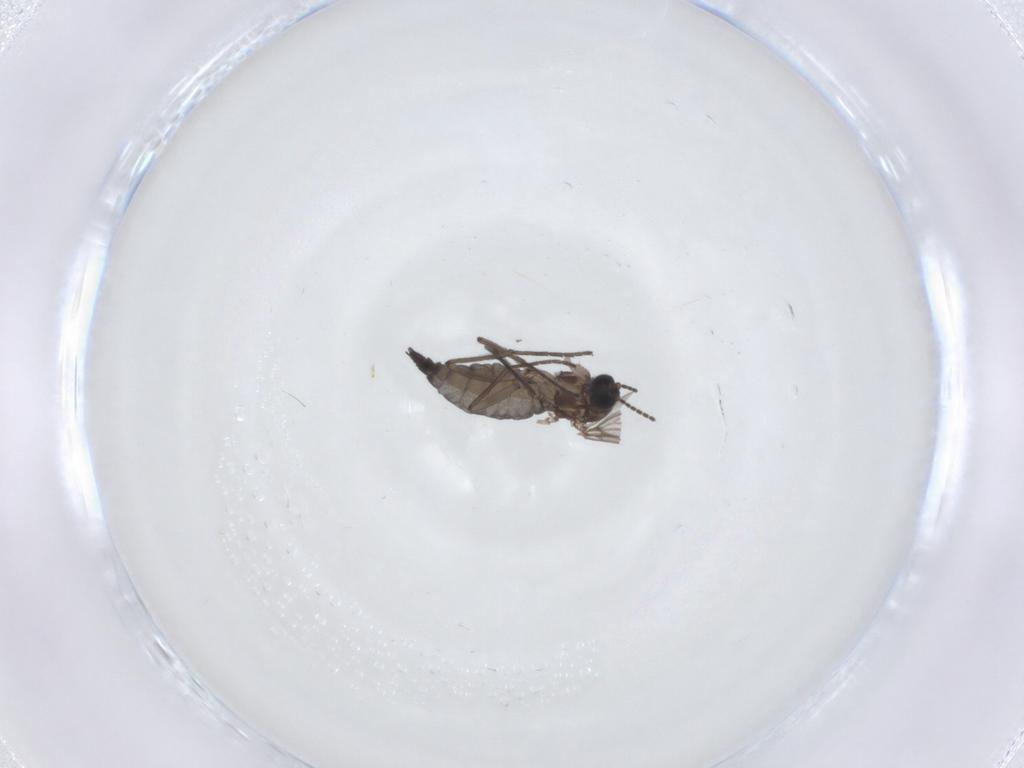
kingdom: Animalia
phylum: Arthropoda
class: Insecta
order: Diptera
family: Sciaridae
